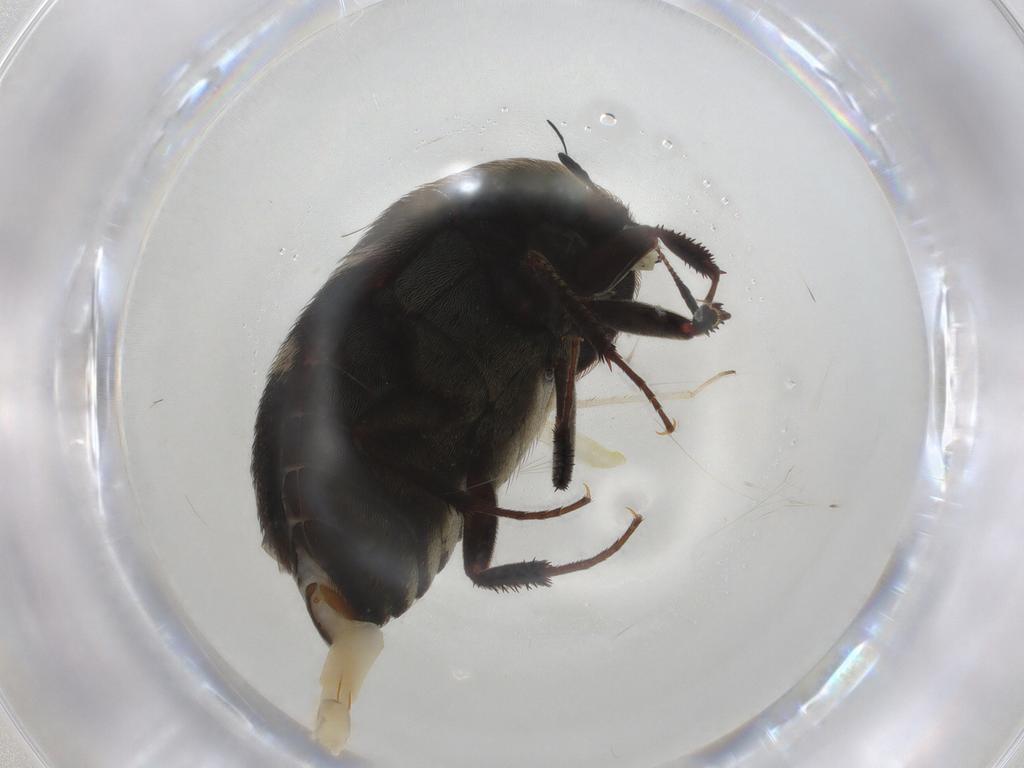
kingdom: Animalia
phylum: Arthropoda
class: Insecta
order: Coleoptera
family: Dermestidae
